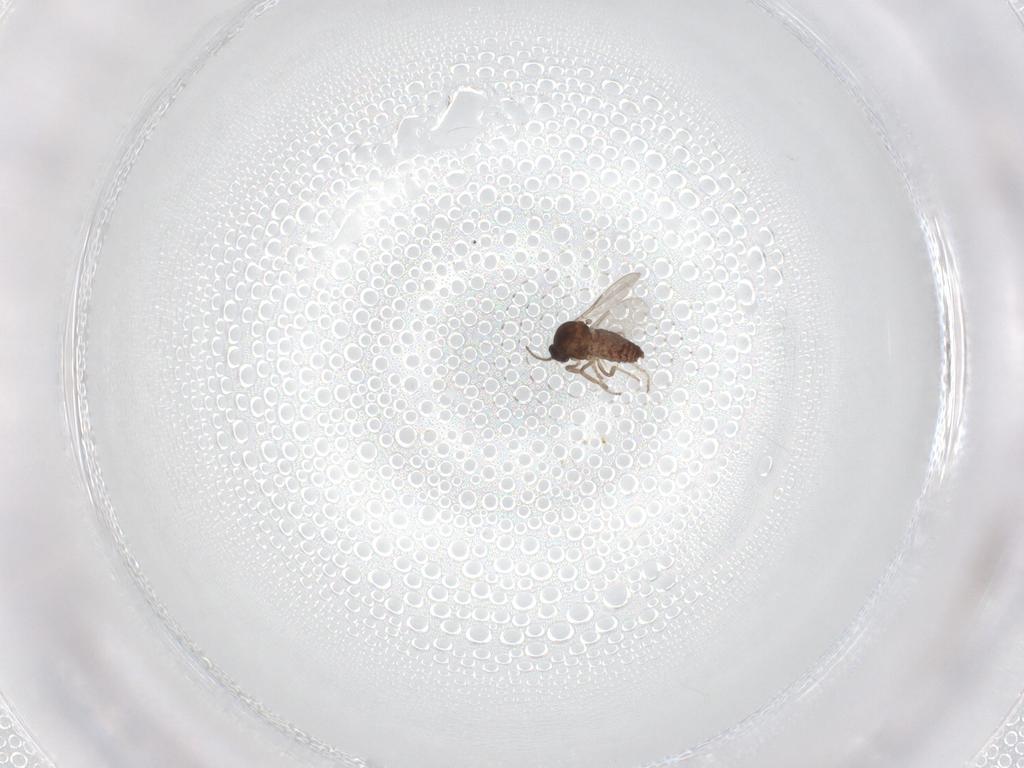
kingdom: Animalia
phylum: Arthropoda
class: Insecta
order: Diptera
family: Ceratopogonidae
